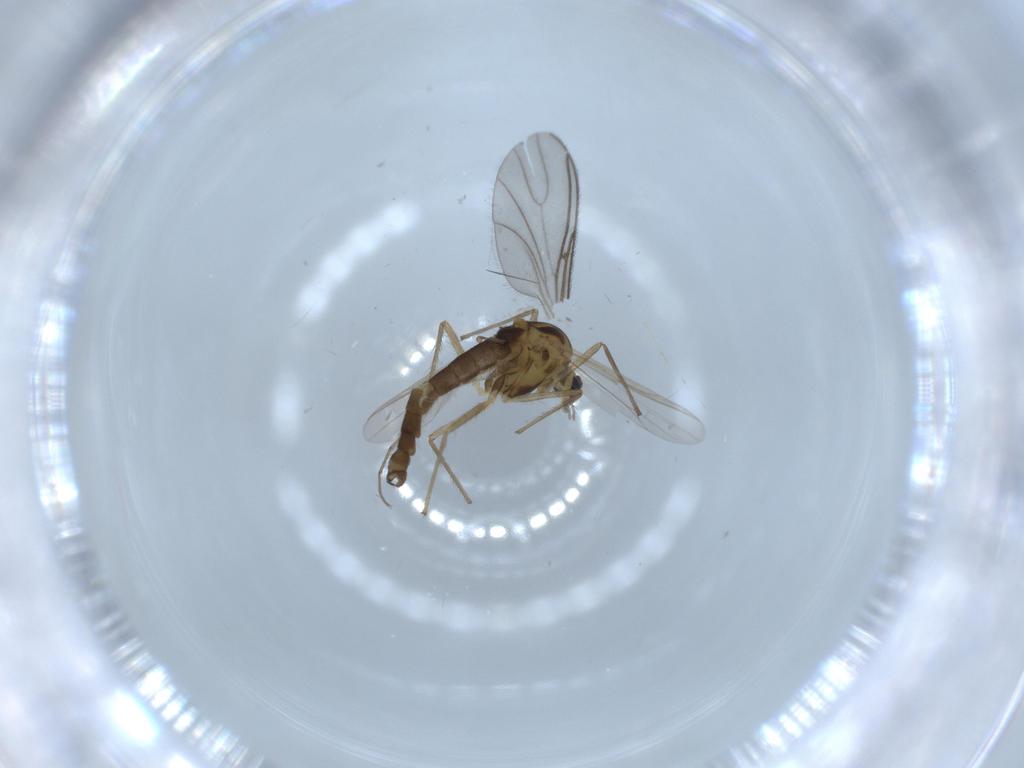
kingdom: Animalia
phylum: Arthropoda
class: Insecta
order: Diptera
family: Chironomidae
